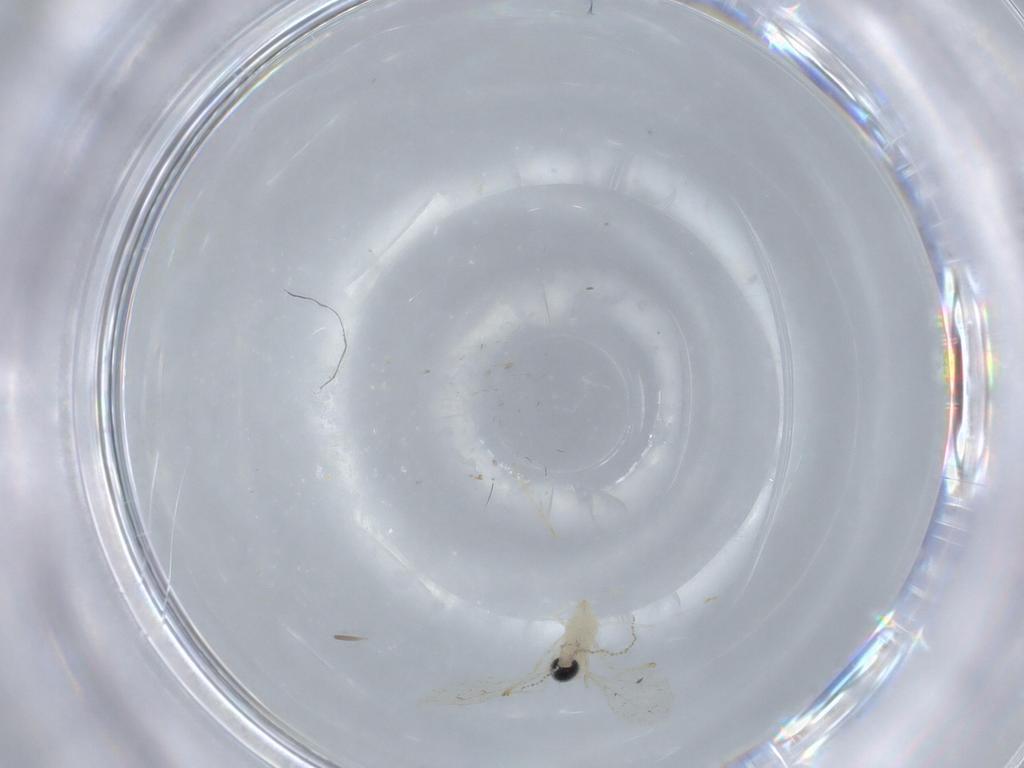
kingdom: Animalia
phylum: Arthropoda
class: Insecta
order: Diptera
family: Cecidomyiidae
